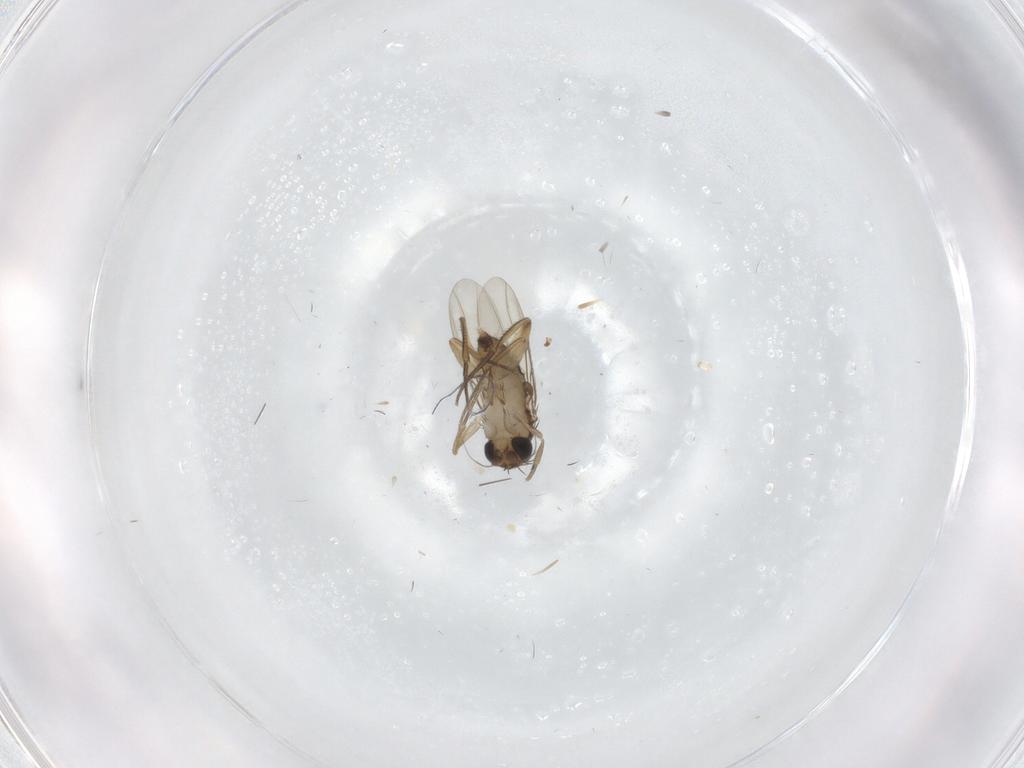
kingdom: Animalia
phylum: Arthropoda
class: Insecta
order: Diptera
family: Phoridae
